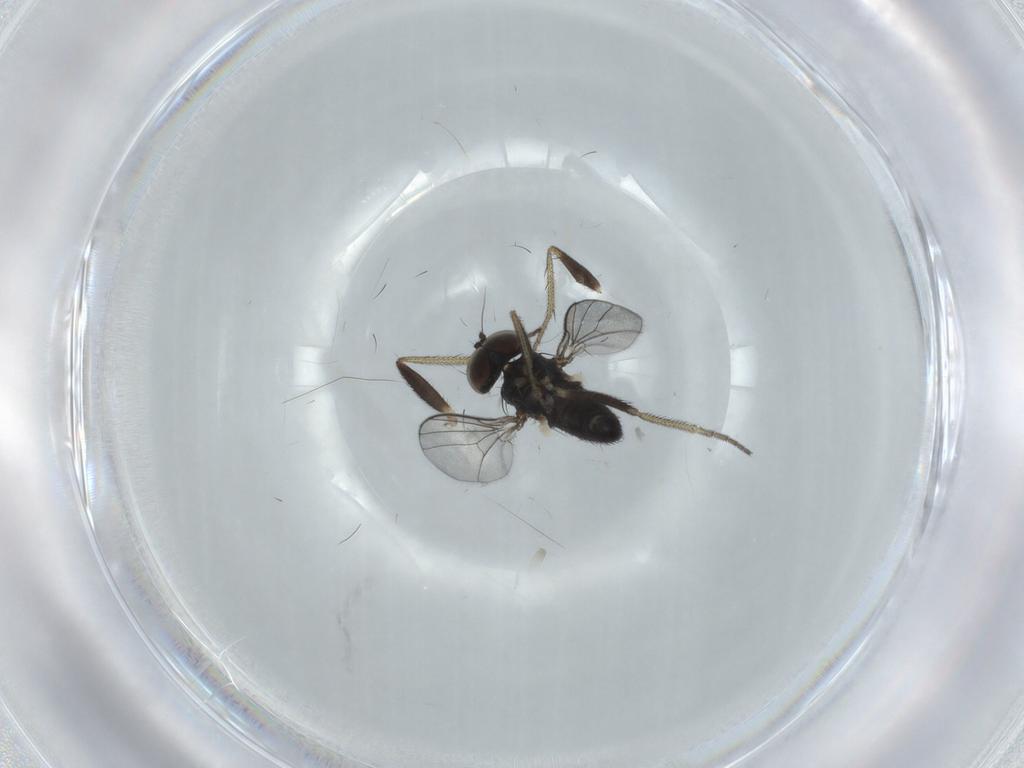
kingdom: Animalia
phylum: Arthropoda
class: Insecta
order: Diptera
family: Dolichopodidae
